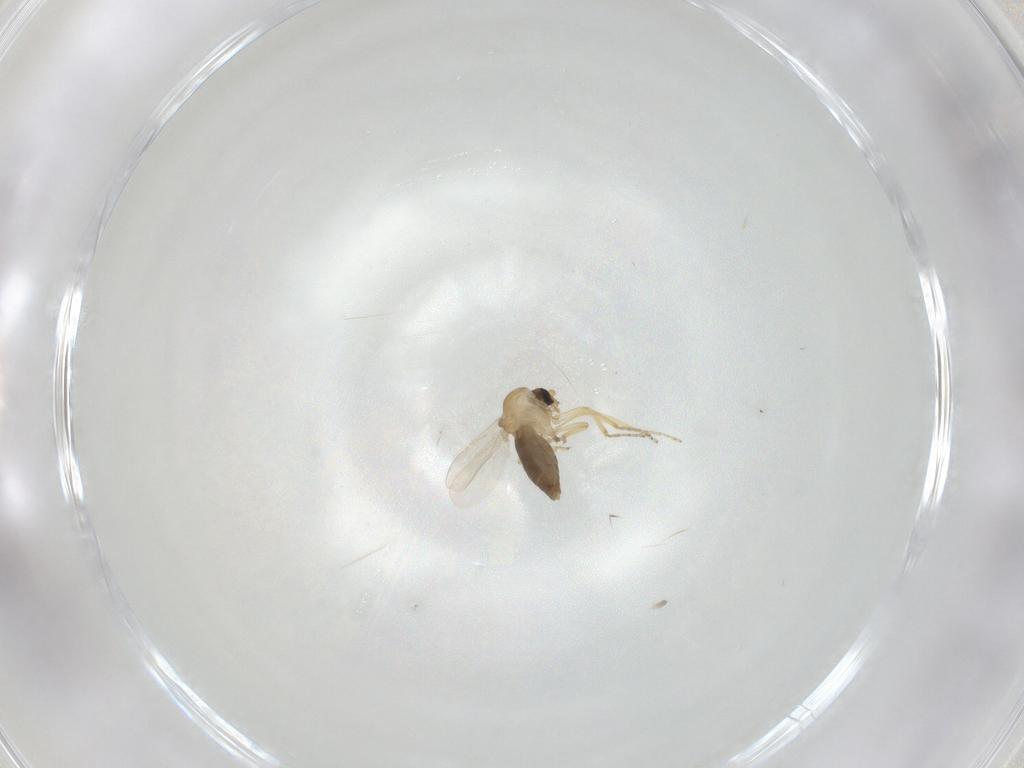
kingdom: Animalia
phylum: Arthropoda
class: Insecta
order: Diptera
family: Ceratopogonidae
